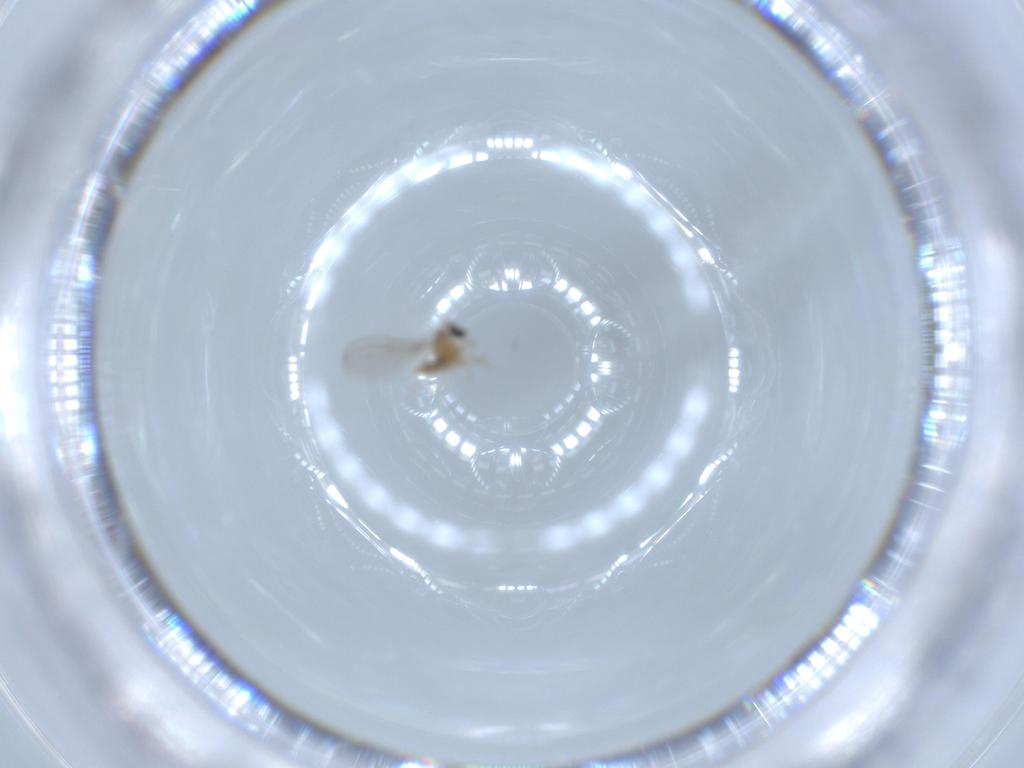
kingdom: Animalia
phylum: Arthropoda
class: Insecta
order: Diptera
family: Cecidomyiidae
